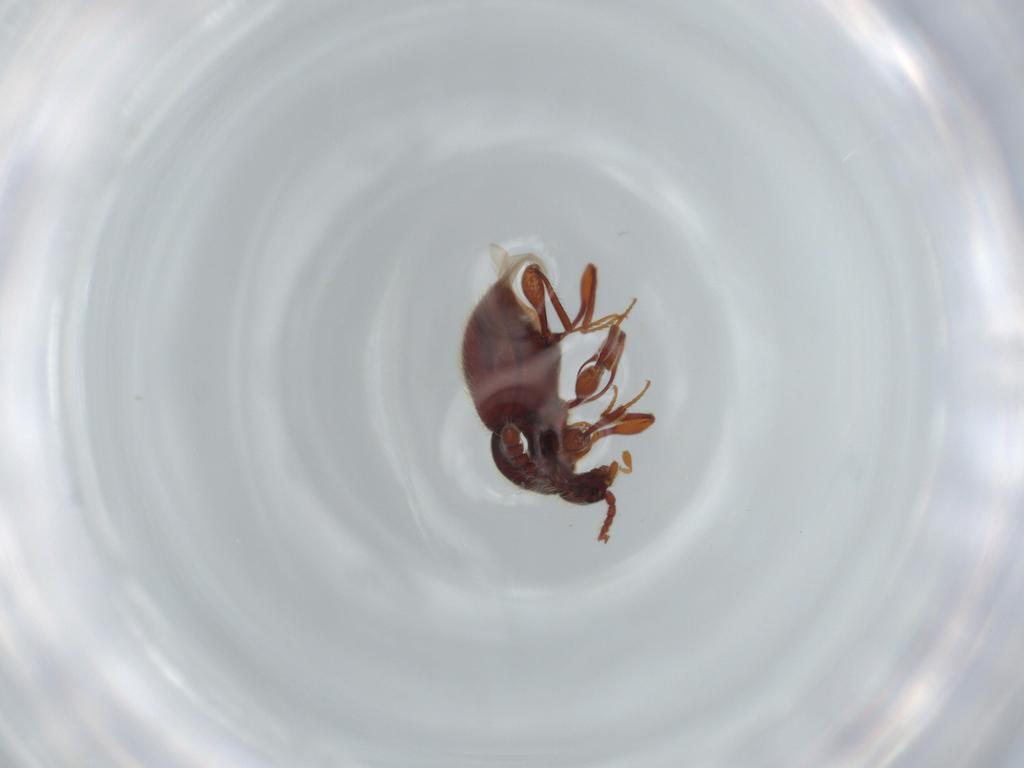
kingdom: Animalia
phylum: Arthropoda
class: Insecta
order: Coleoptera
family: Staphylinidae
